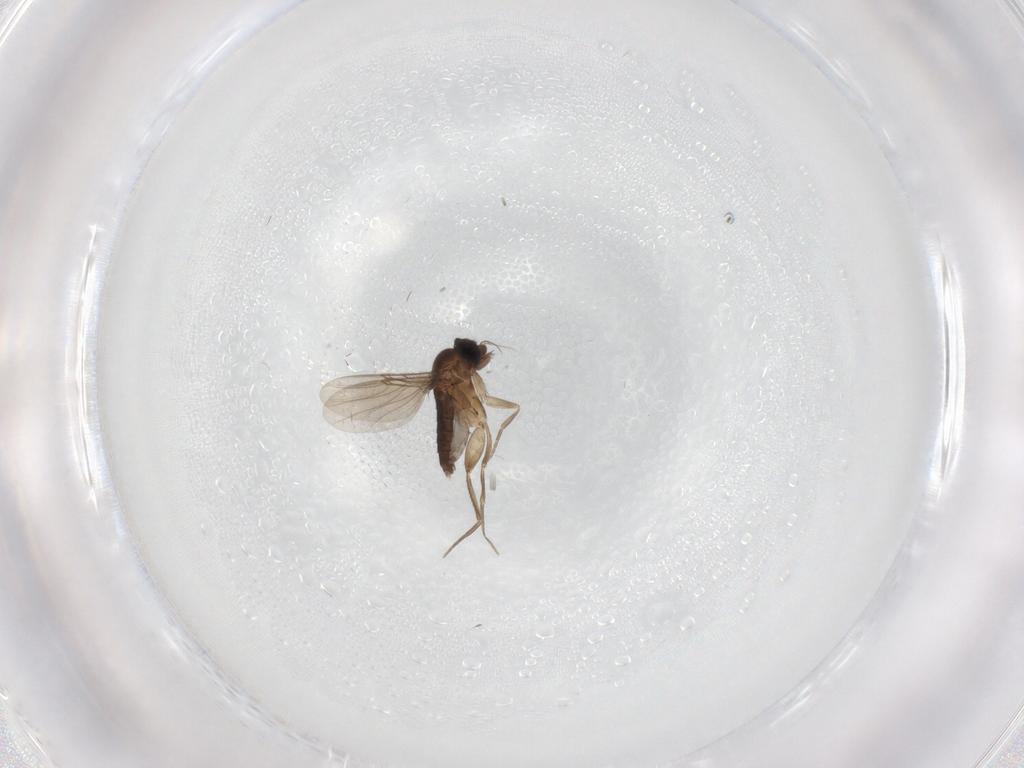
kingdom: Animalia
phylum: Arthropoda
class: Insecta
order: Diptera
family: Phoridae
